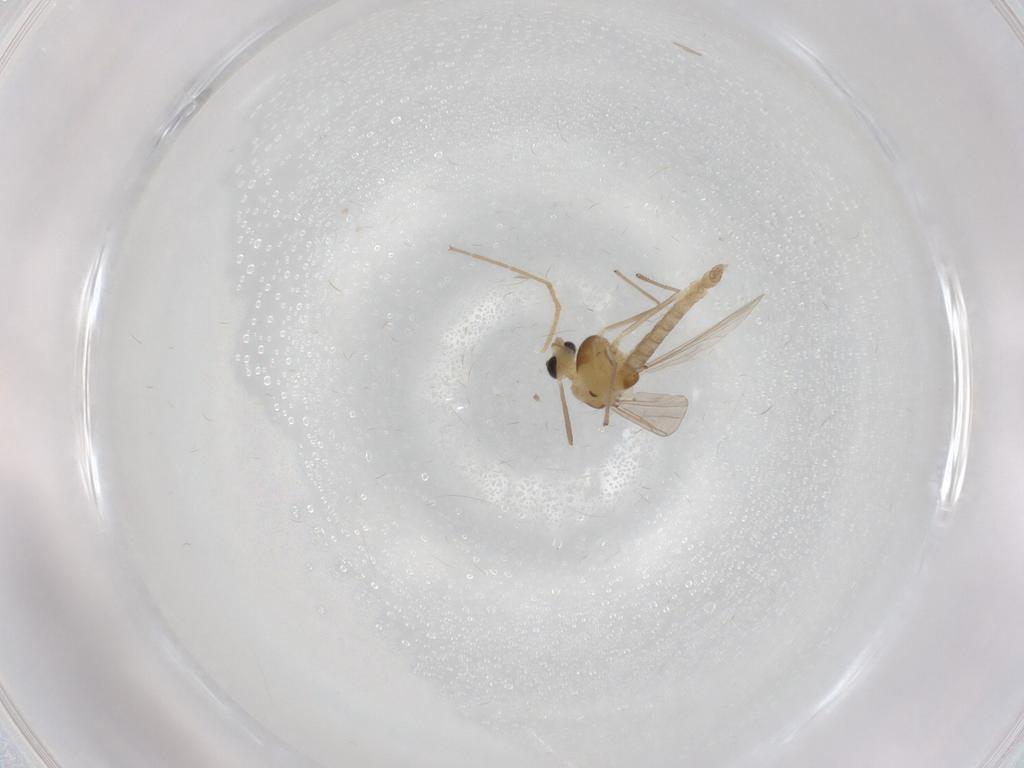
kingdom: Animalia
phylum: Arthropoda
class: Insecta
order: Diptera
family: Chironomidae
